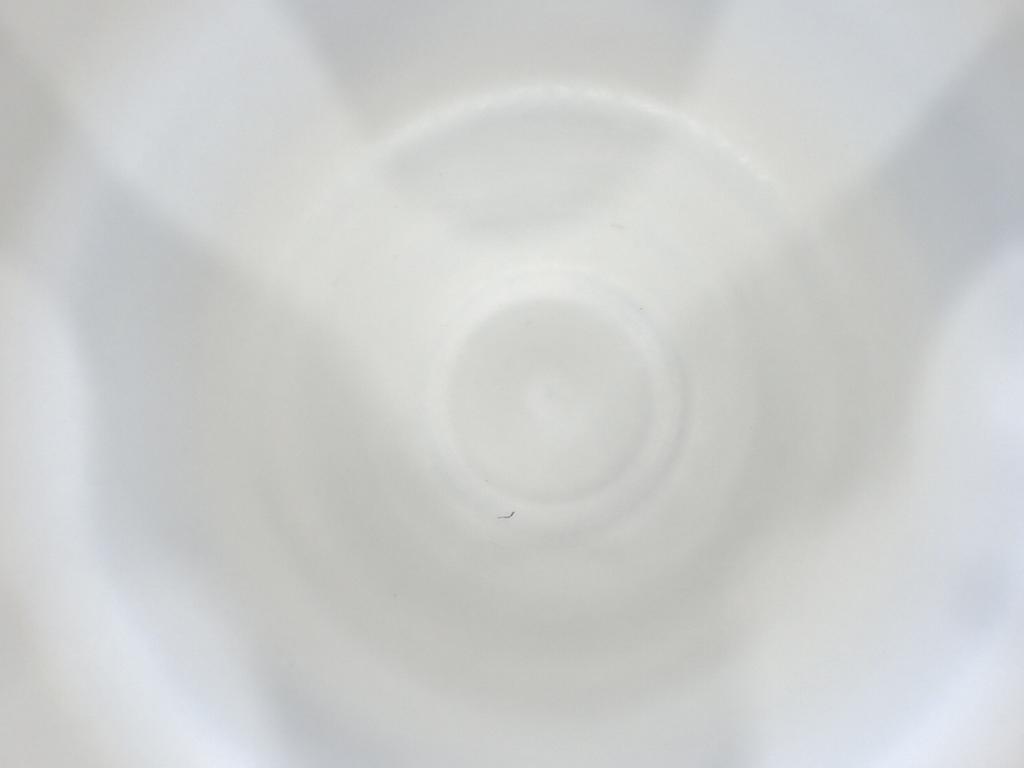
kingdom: Animalia
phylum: Arthropoda
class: Insecta
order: Diptera
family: Cecidomyiidae
